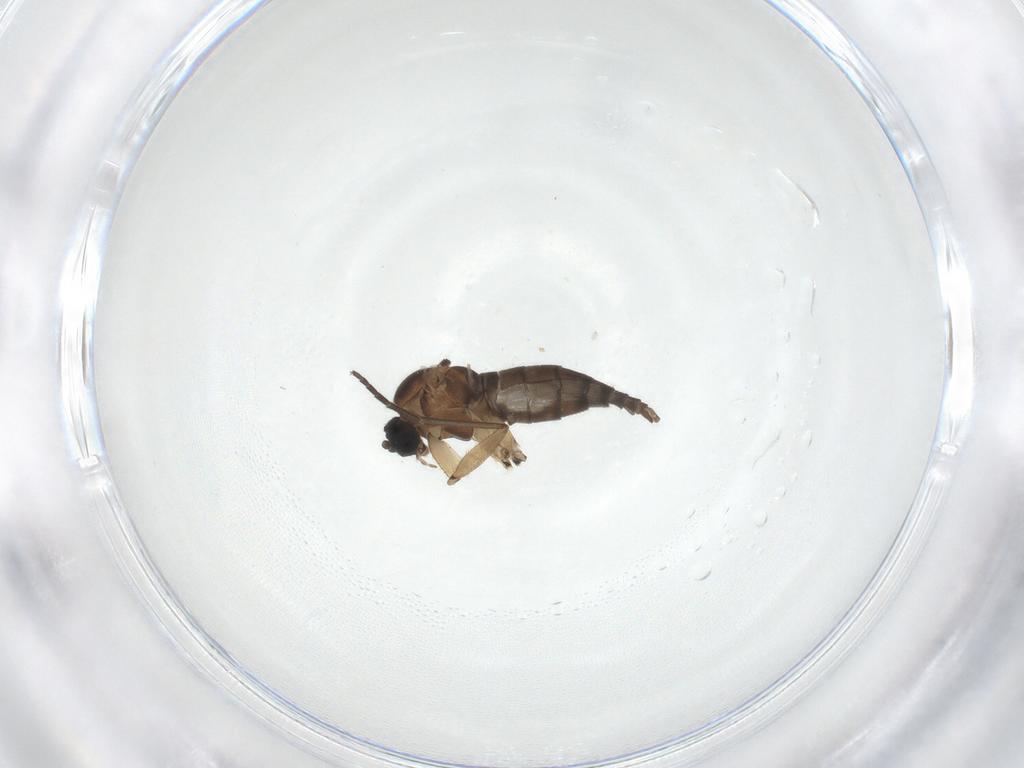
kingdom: Animalia
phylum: Arthropoda
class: Insecta
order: Diptera
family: Sciaridae
